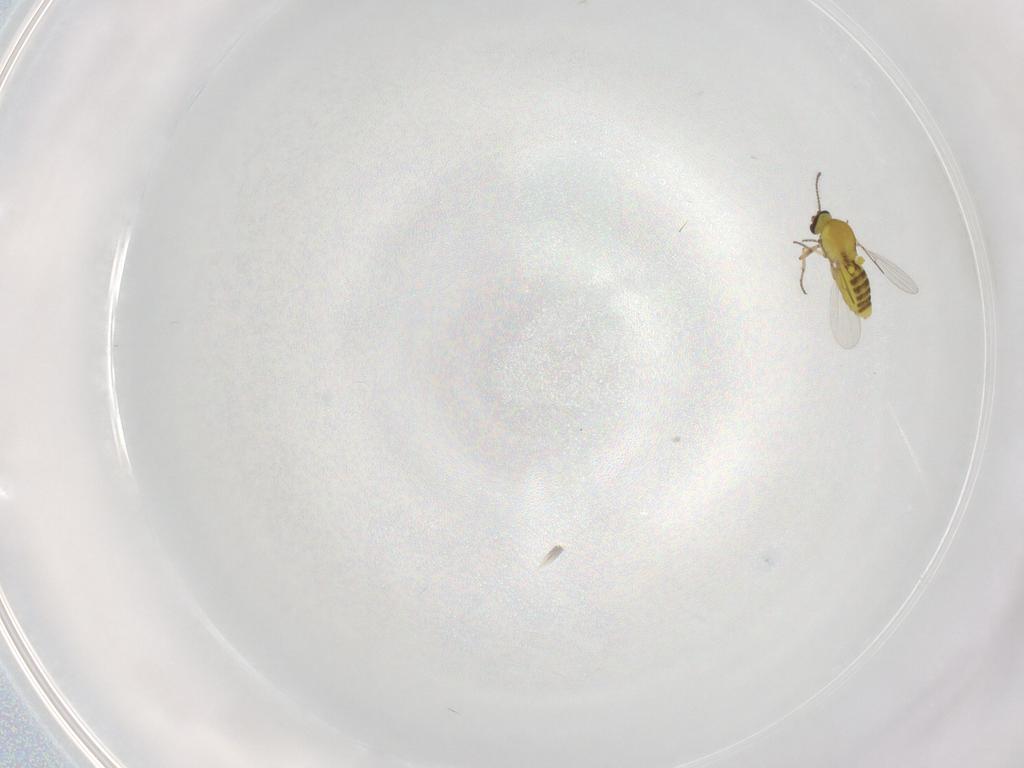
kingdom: Animalia
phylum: Arthropoda
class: Insecta
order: Diptera
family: Ceratopogonidae
